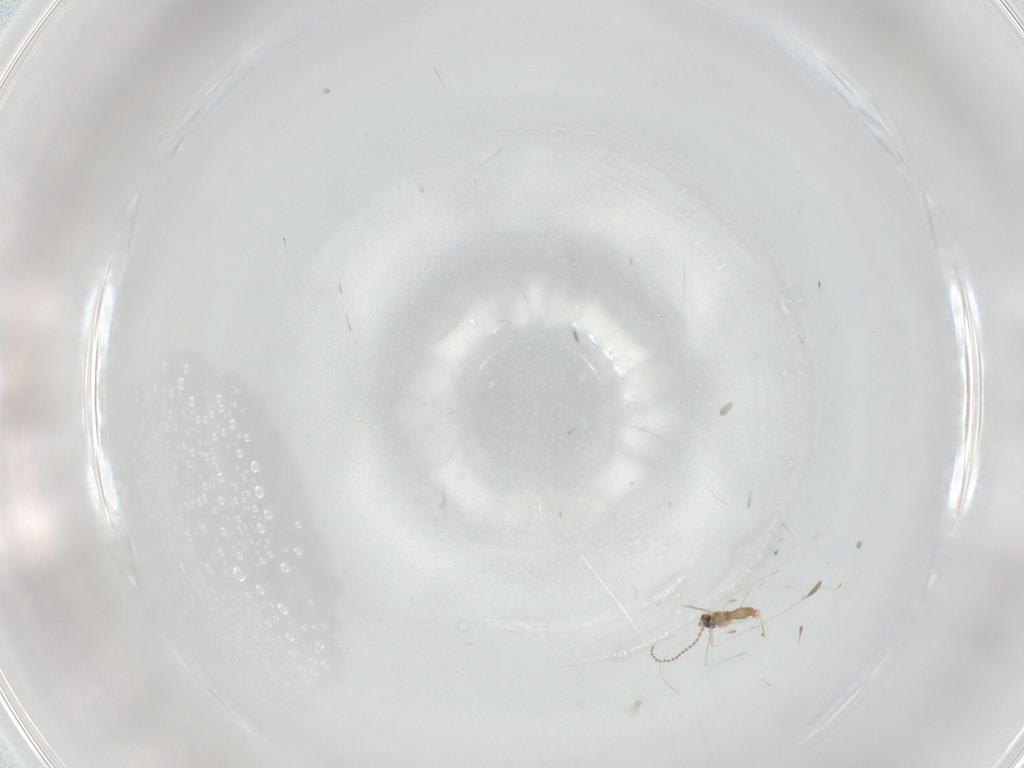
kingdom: Animalia
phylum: Arthropoda
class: Insecta
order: Diptera
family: Cecidomyiidae
